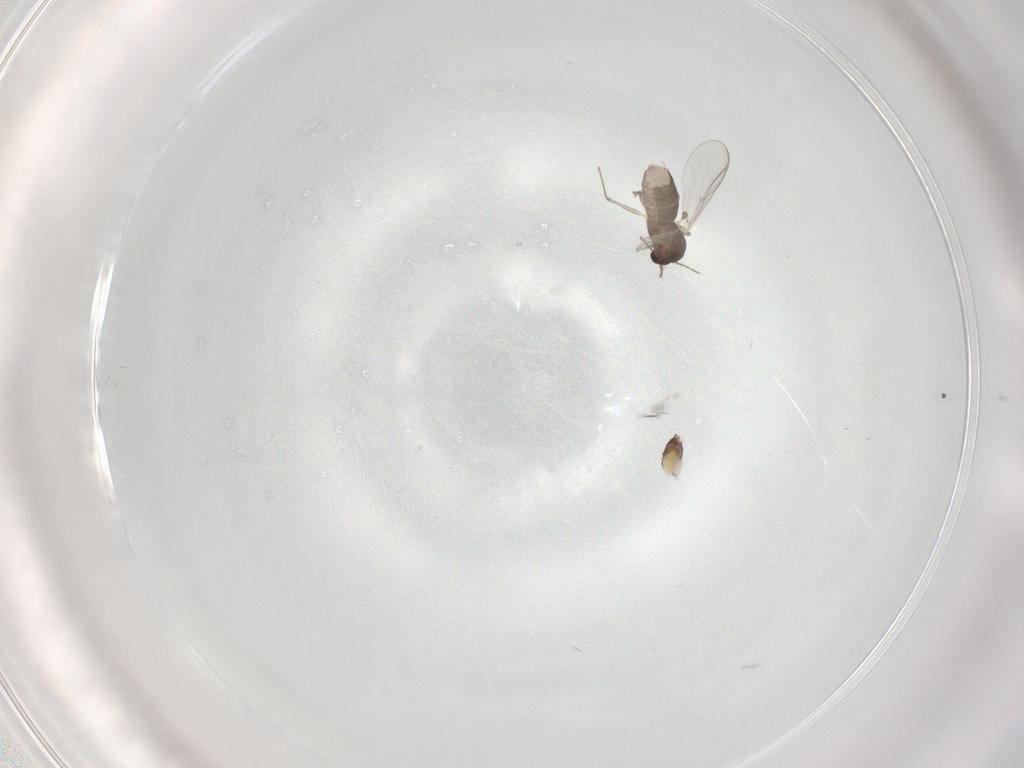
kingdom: Animalia
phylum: Arthropoda
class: Insecta
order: Diptera
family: Chironomidae
